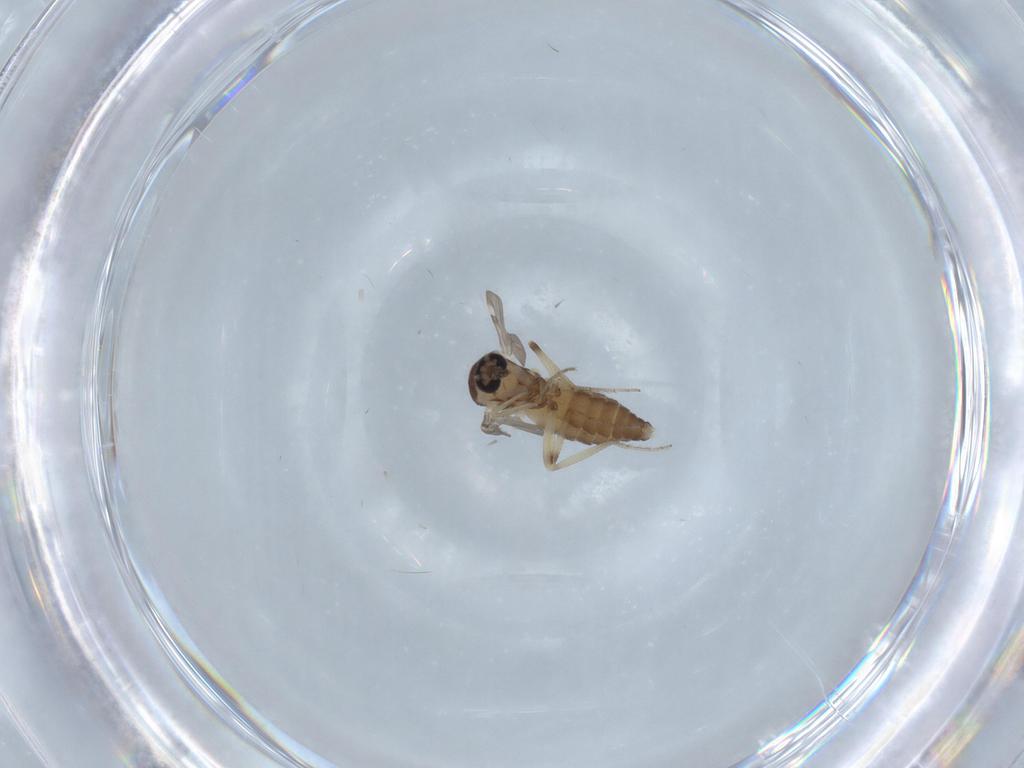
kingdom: Animalia
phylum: Arthropoda
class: Insecta
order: Diptera
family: Ceratopogonidae
